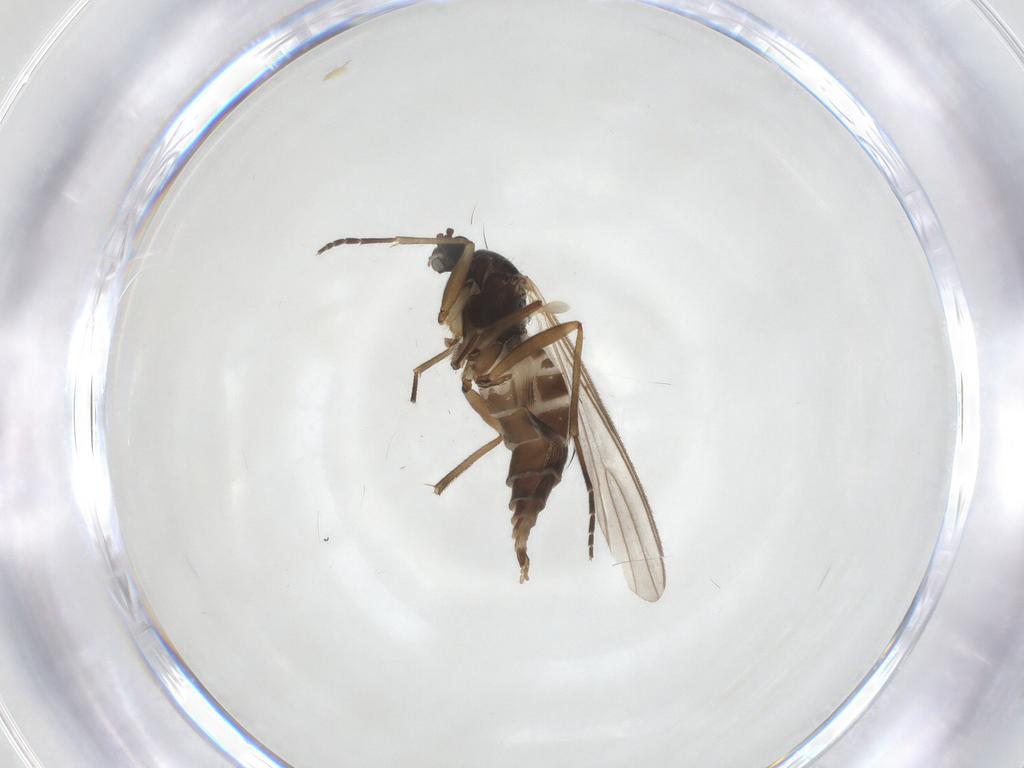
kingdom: Animalia
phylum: Arthropoda
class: Insecta
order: Diptera
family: Sciaridae
